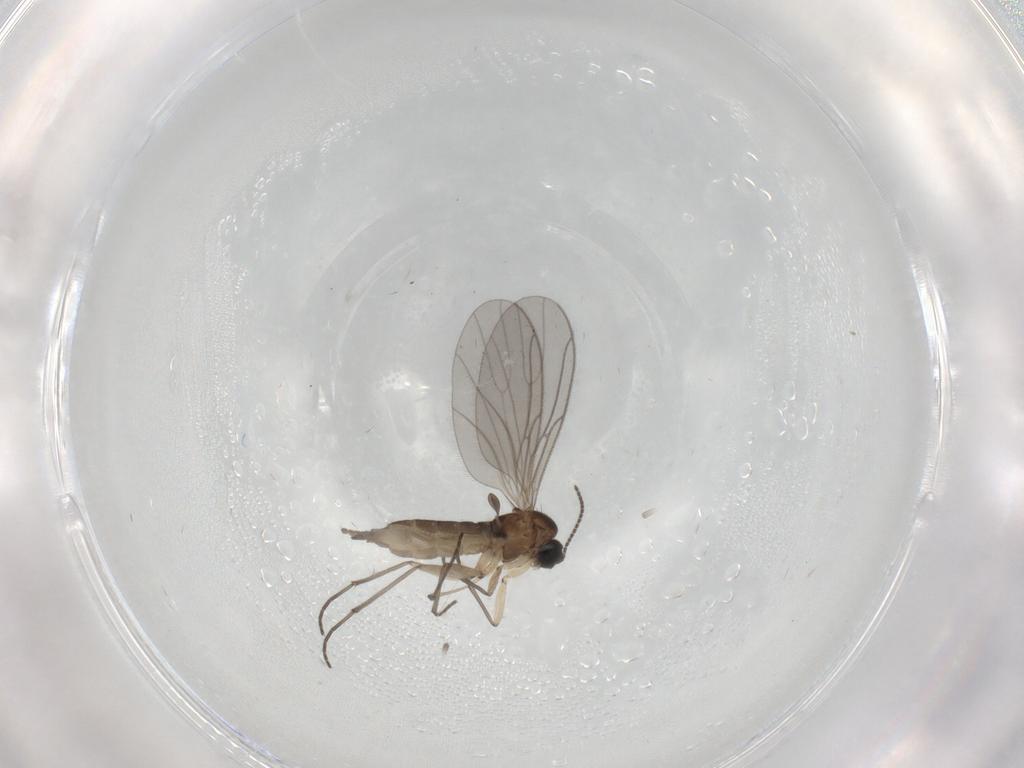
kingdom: Animalia
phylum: Arthropoda
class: Insecta
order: Diptera
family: Sciaridae
